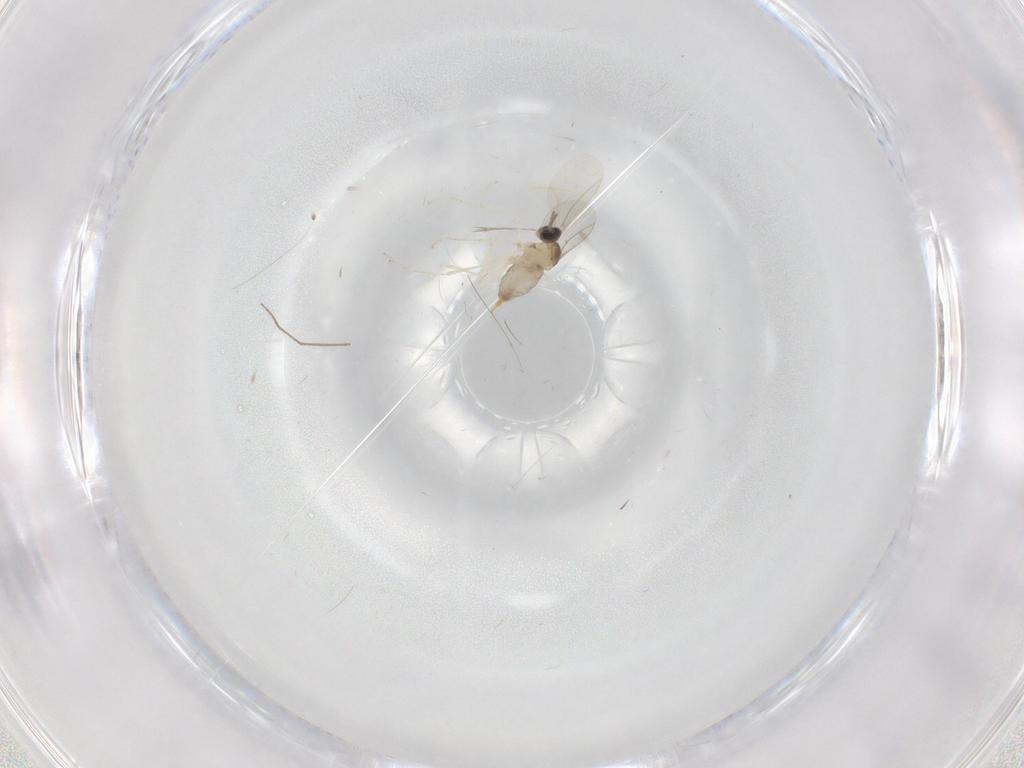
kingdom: Animalia
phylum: Arthropoda
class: Insecta
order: Diptera
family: Cecidomyiidae
